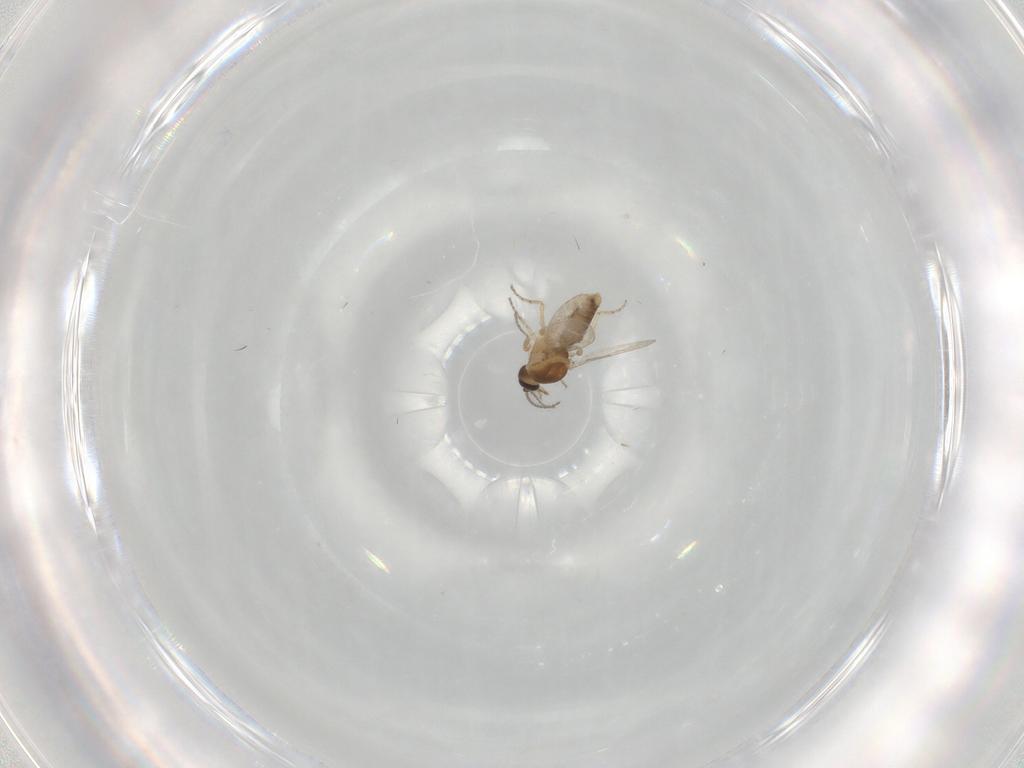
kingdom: Animalia
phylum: Arthropoda
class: Insecta
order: Diptera
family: Ceratopogonidae
